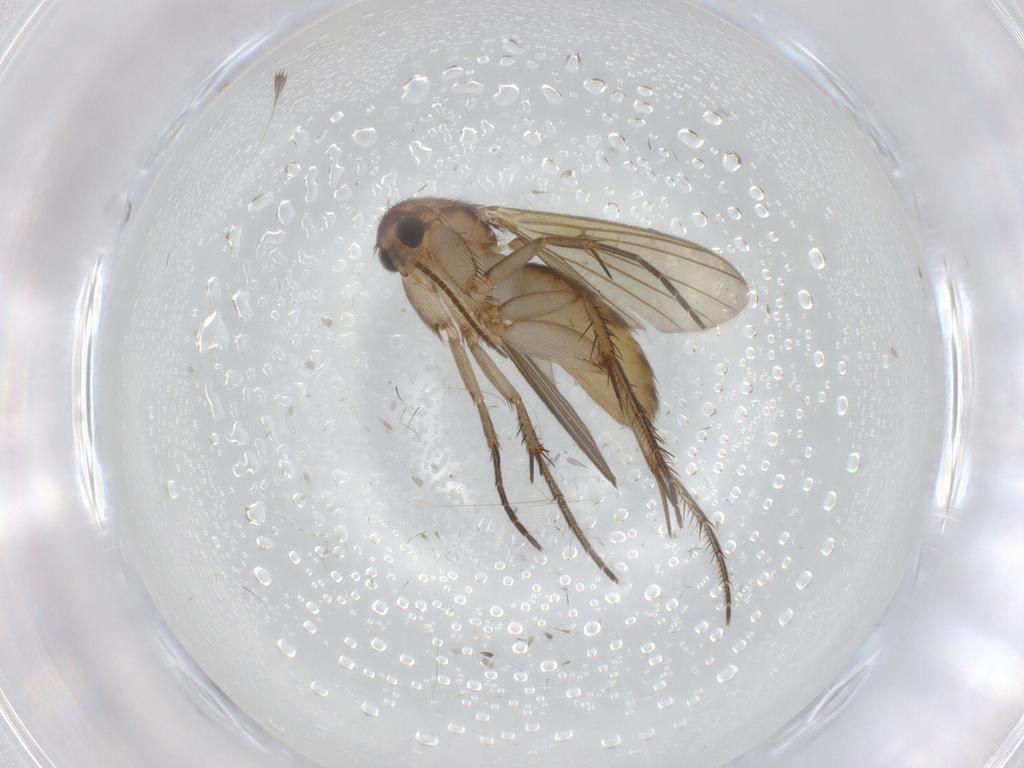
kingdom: Animalia
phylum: Arthropoda
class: Insecta
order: Diptera
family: Mycetophilidae
